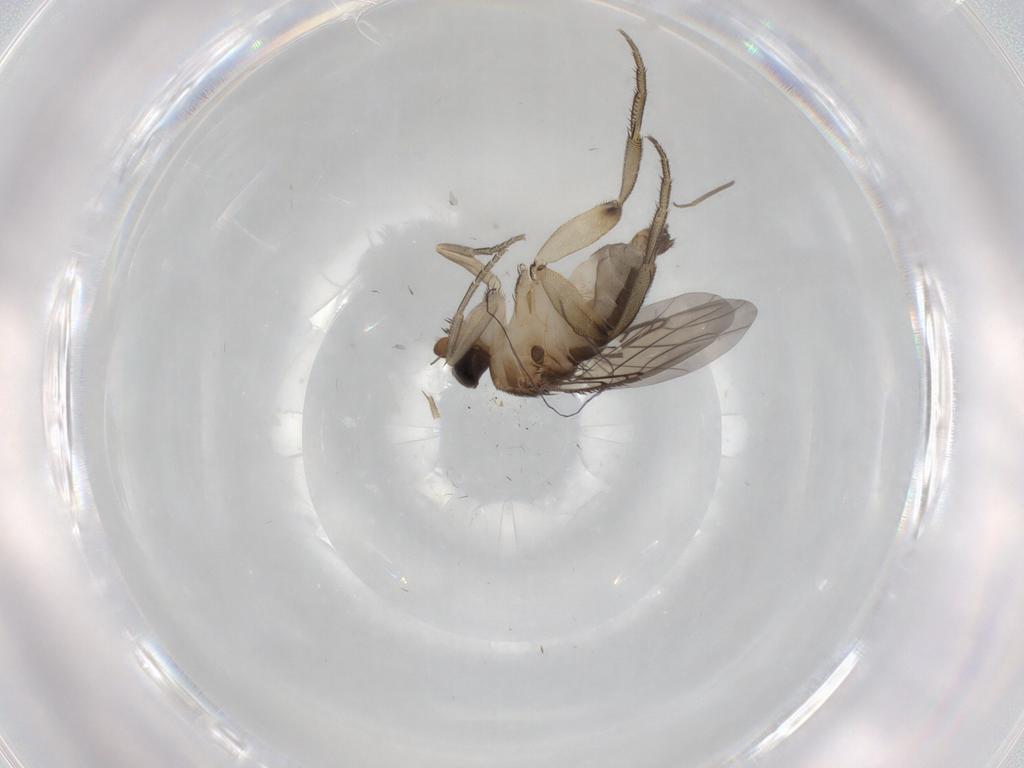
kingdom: Animalia
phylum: Arthropoda
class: Insecta
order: Diptera
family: Phoridae
